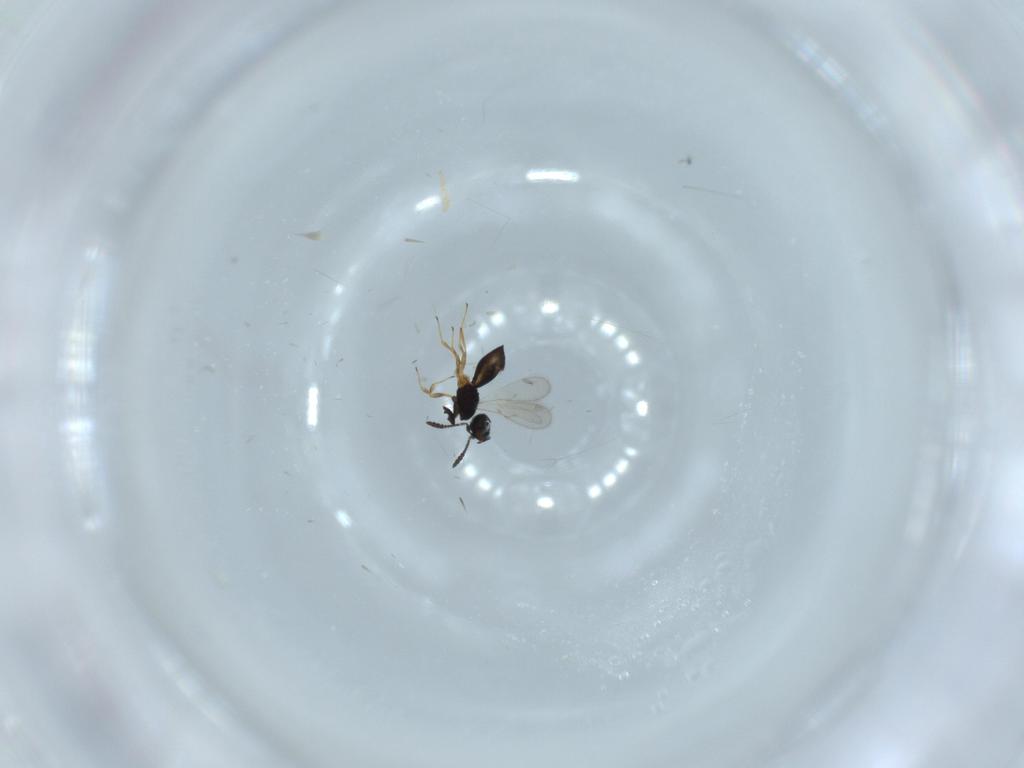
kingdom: Animalia
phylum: Arthropoda
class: Insecta
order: Hymenoptera
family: Scelionidae
